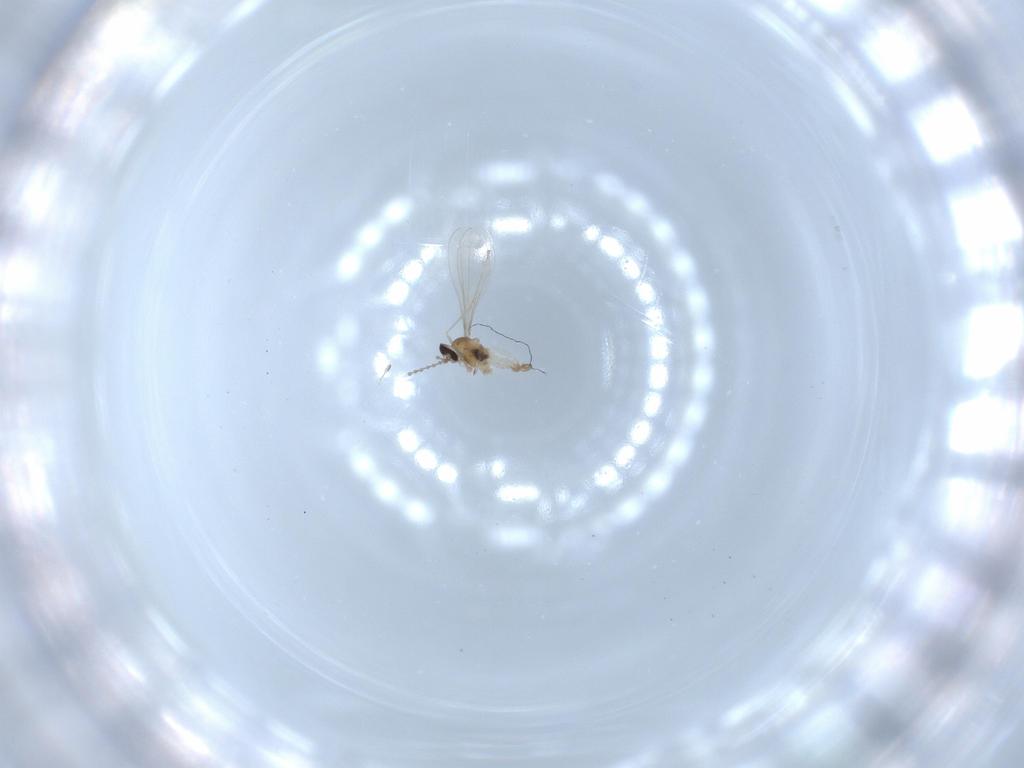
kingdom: Animalia
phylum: Arthropoda
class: Insecta
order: Diptera
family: Cecidomyiidae
